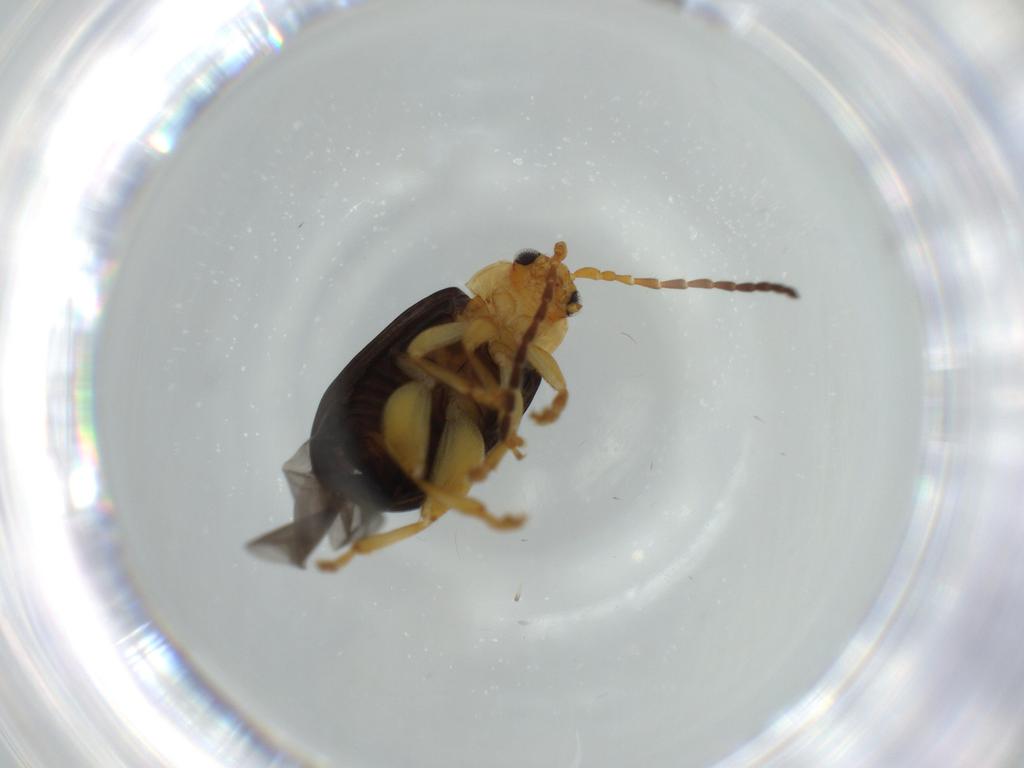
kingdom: Animalia
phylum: Arthropoda
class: Insecta
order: Coleoptera
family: Chrysomelidae
